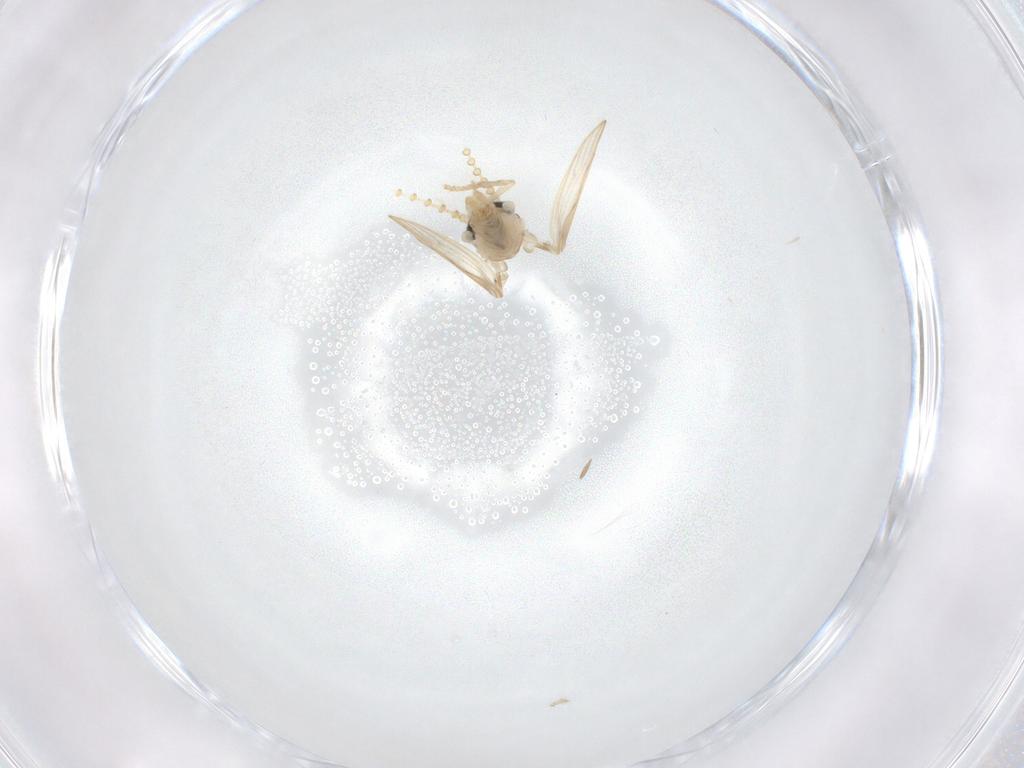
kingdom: Animalia
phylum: Arthropoda
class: Insecta
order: Diptera
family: Psychodidae
